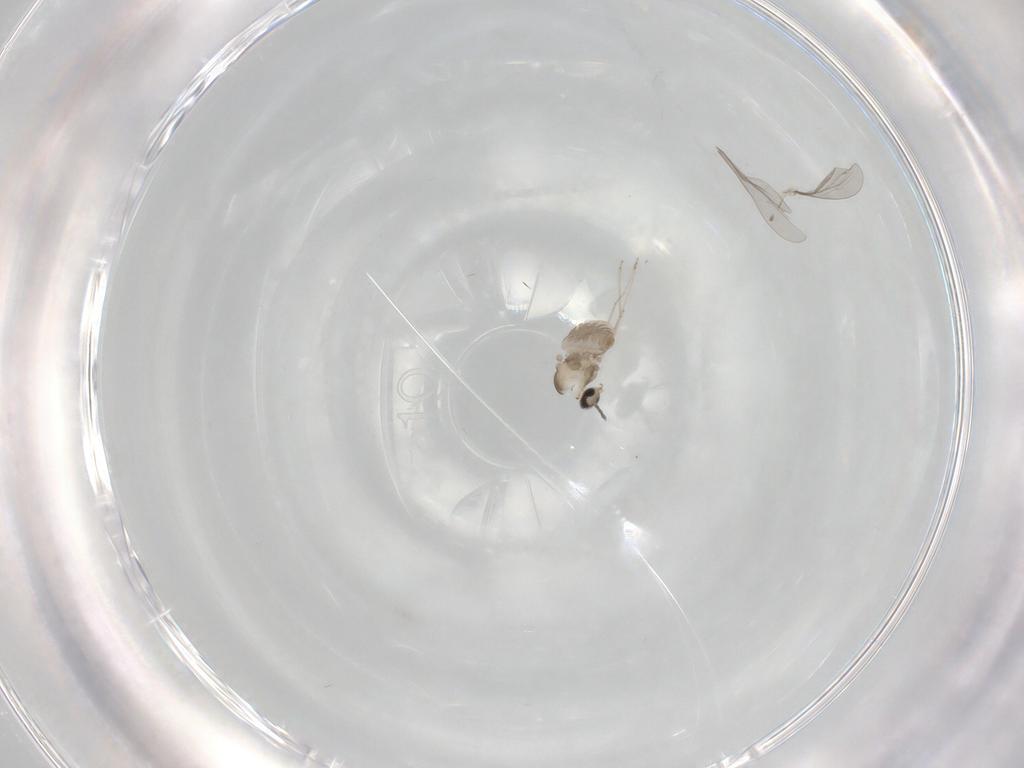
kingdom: Animalia
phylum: Arthropoda
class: Insecta
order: Diptera
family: Cecidomyiidae
